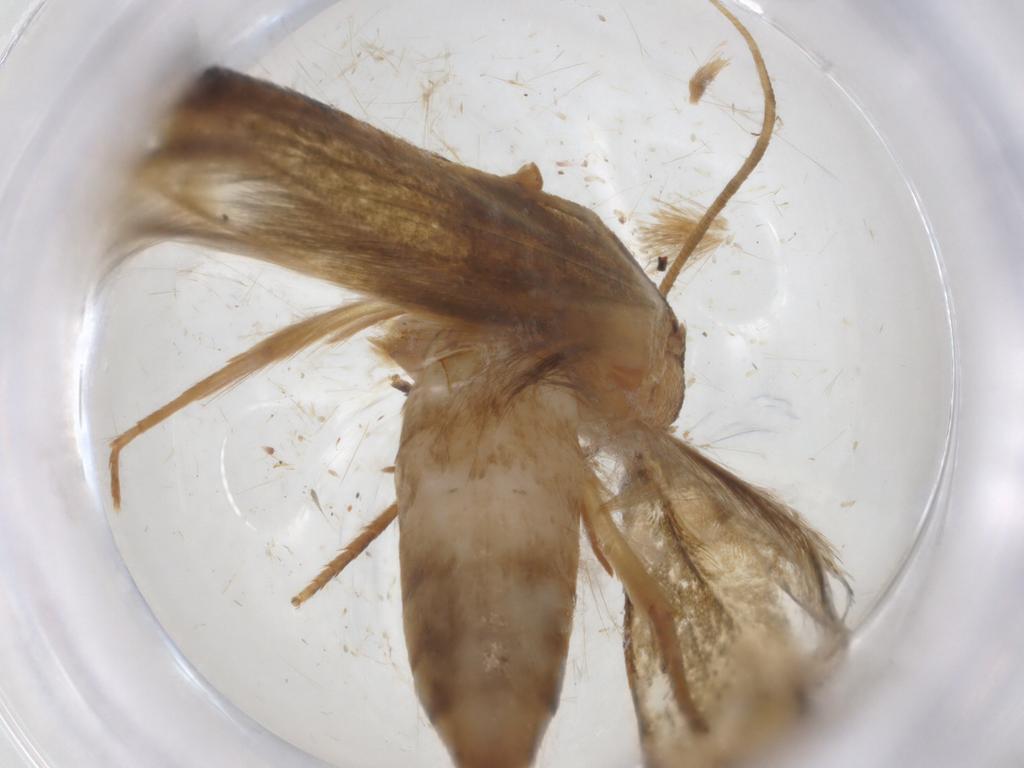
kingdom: Animalia
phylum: Arthropoda
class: Insecta
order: Lepidoptera
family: Tineidae
